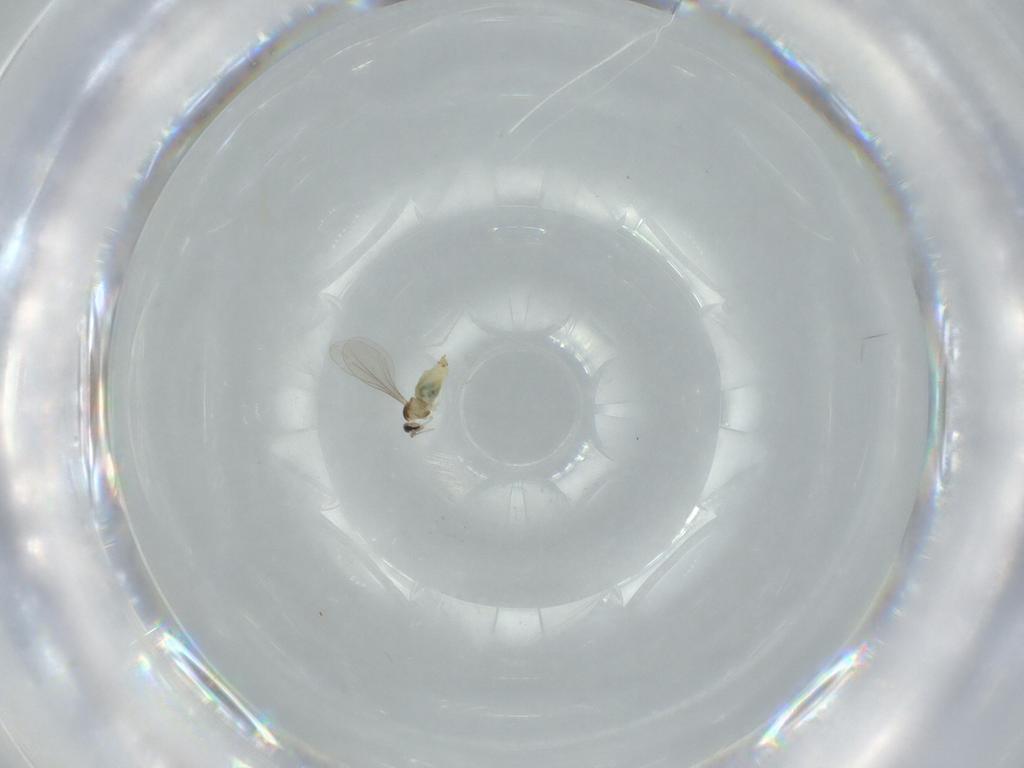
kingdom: Animalia
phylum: Arthropoda
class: Insecta
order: Diptera
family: Cecidomyiidae
